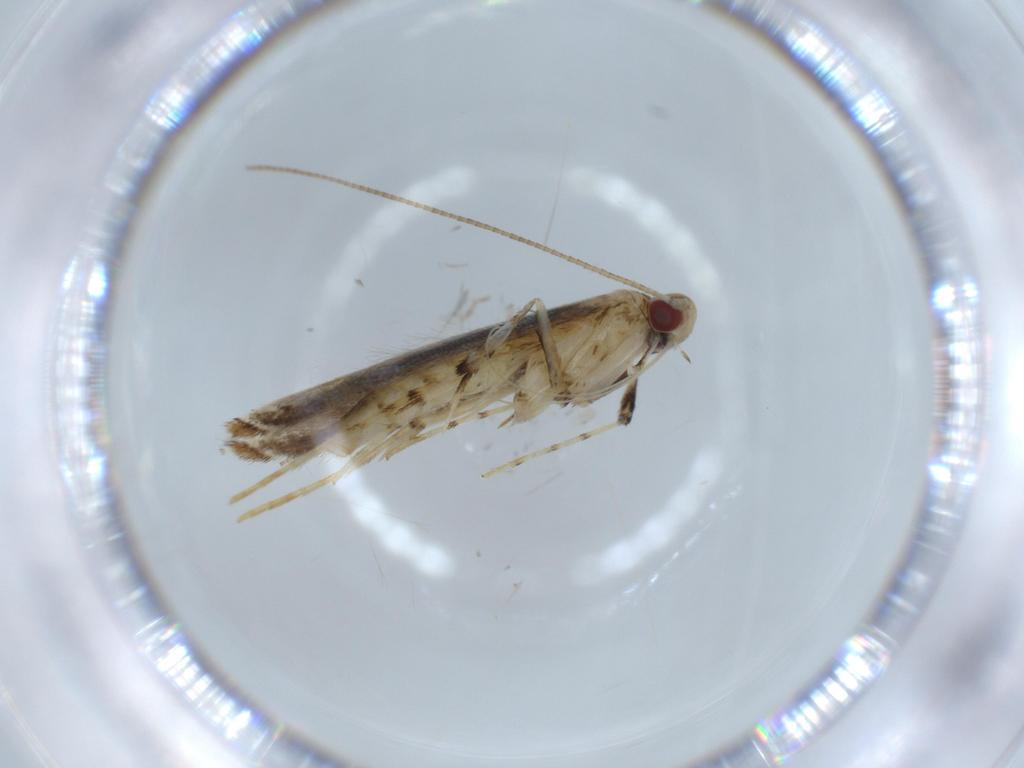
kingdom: Animalia
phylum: Arthropoda
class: Insecta
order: Lepidoptera
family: Gracillariidae
